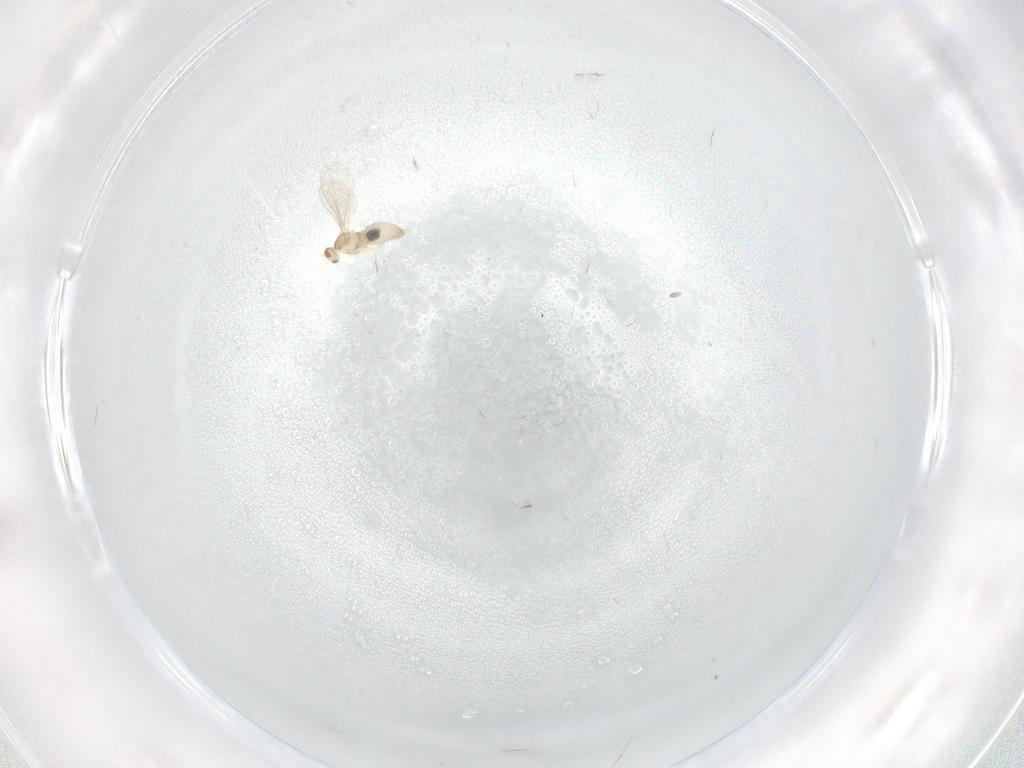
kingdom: Animalia
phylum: Arthropoda
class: Insecta
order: Diptera
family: Cecidomyiidae
